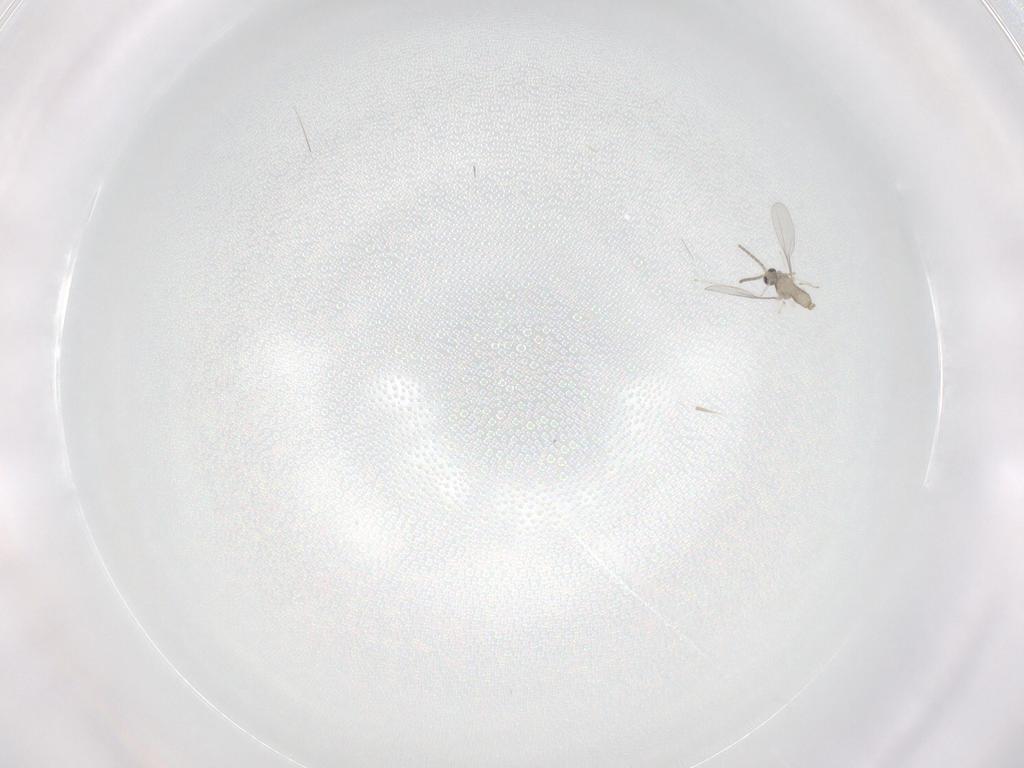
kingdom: Animalia
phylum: Arthropoda
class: Insecta
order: Diptera
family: Cecidomyiidae
